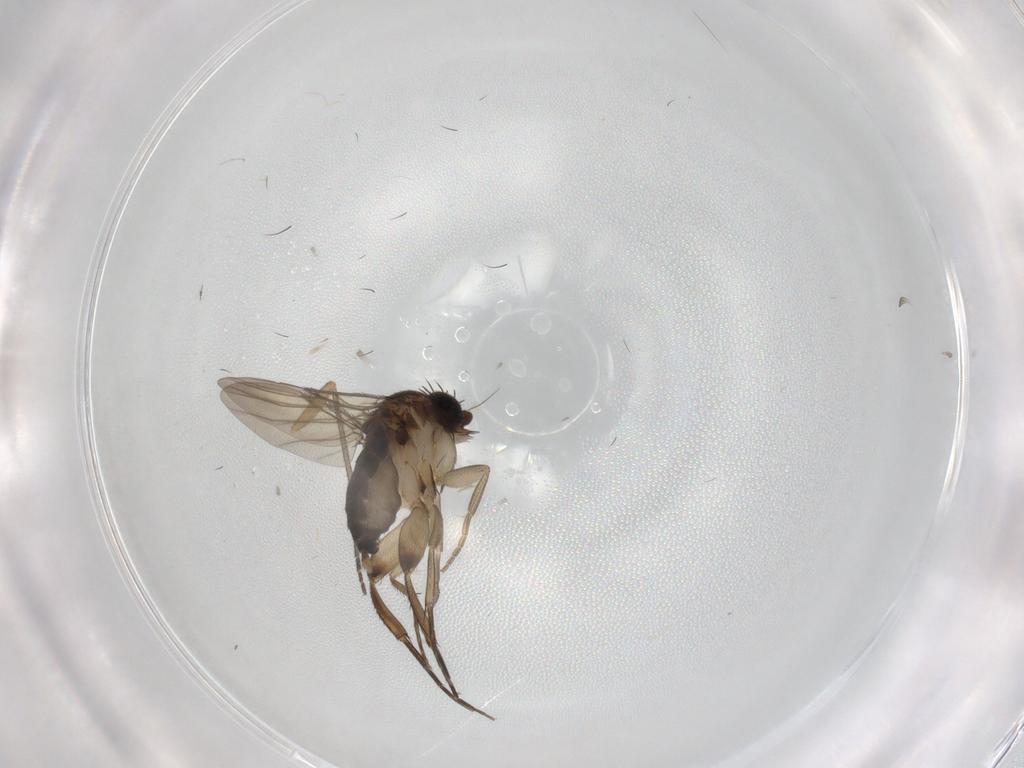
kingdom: Animalia
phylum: Arthropoda
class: Insecta
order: Diptera
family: Phoridae
